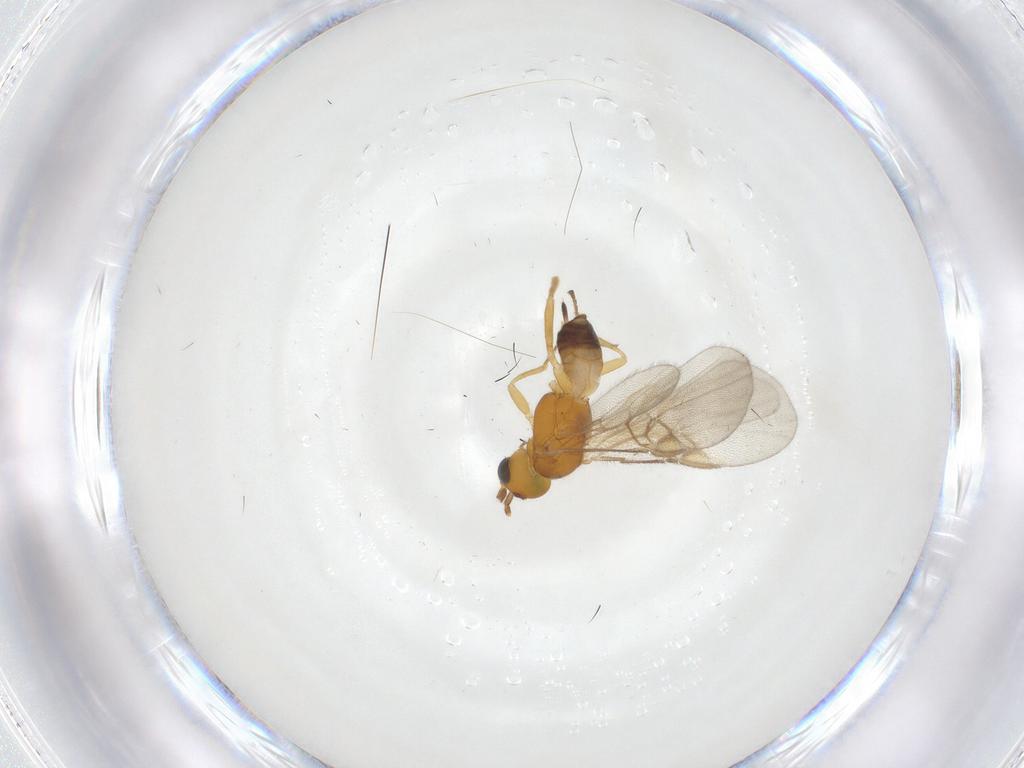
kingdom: Animalia
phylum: Arthropoda
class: Insecta
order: Hymenoptera
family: Braconidae
